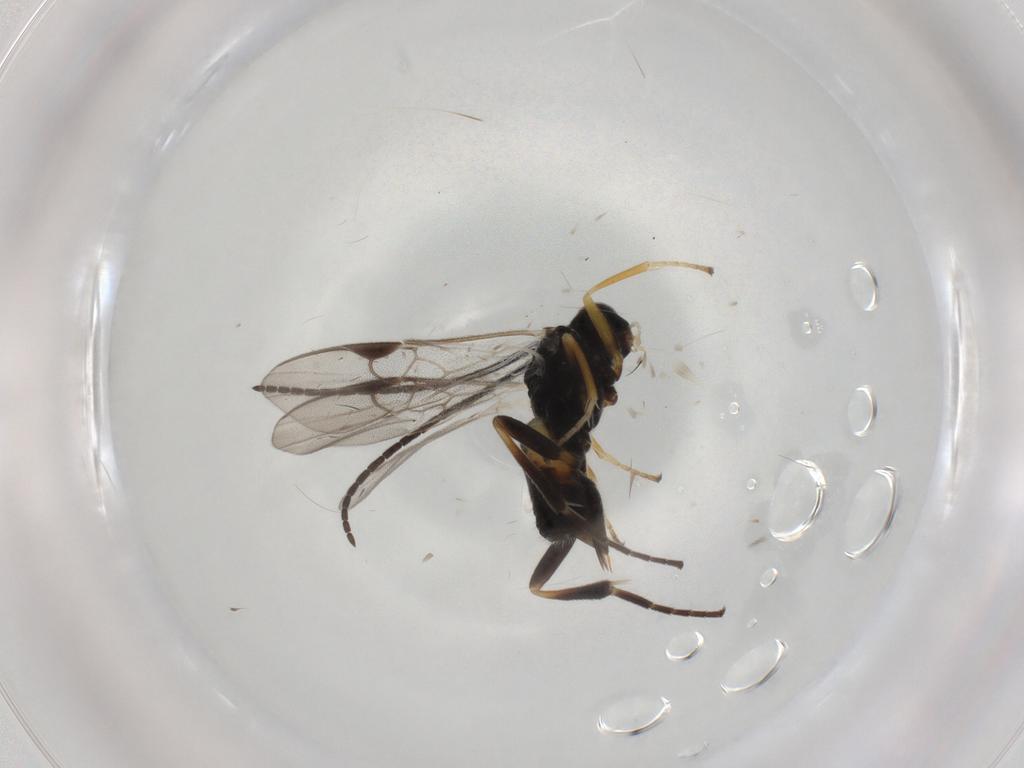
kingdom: Animalia
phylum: Arthropoda
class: Insecta
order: Hymenoptera
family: Braconidae
